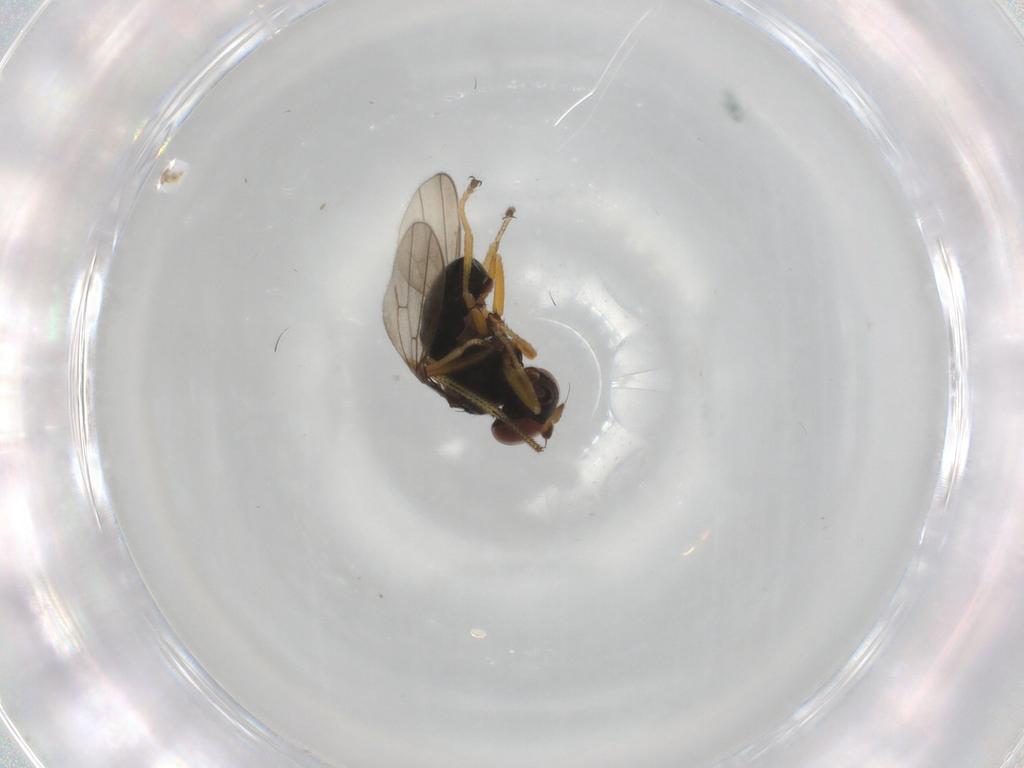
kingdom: Animalia
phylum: Arthropoda
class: Insecta
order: Diptera
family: Ephydridae
